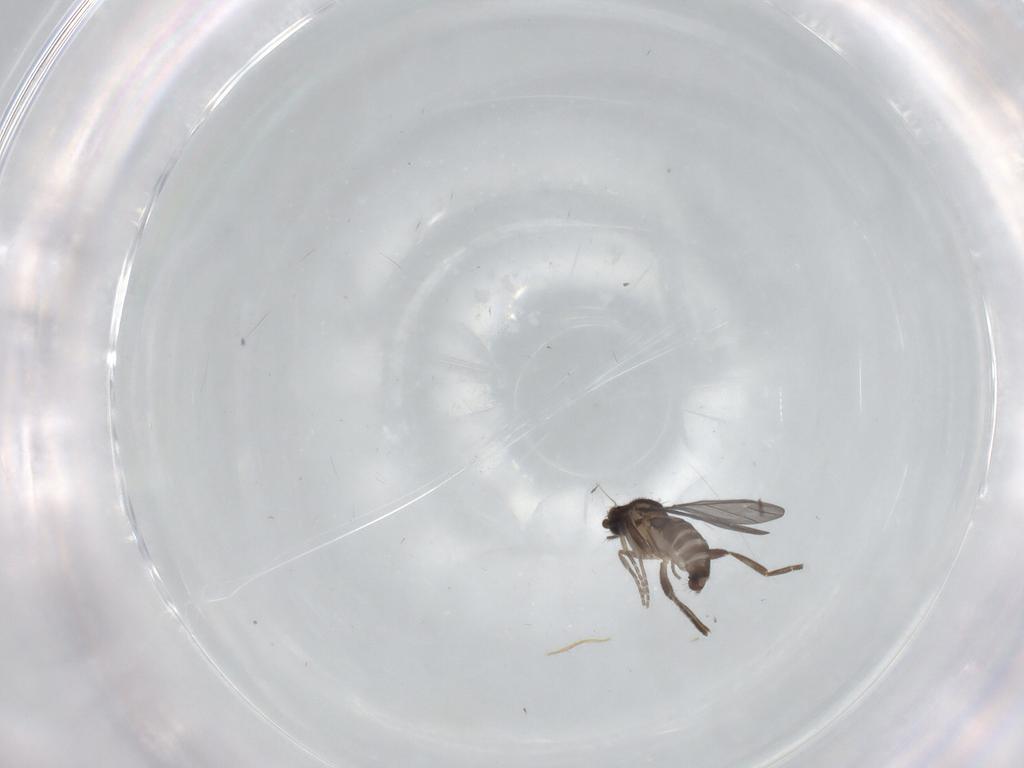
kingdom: Animalia
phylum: Arthropoda
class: Insecta
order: Diptera
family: Phoridae
